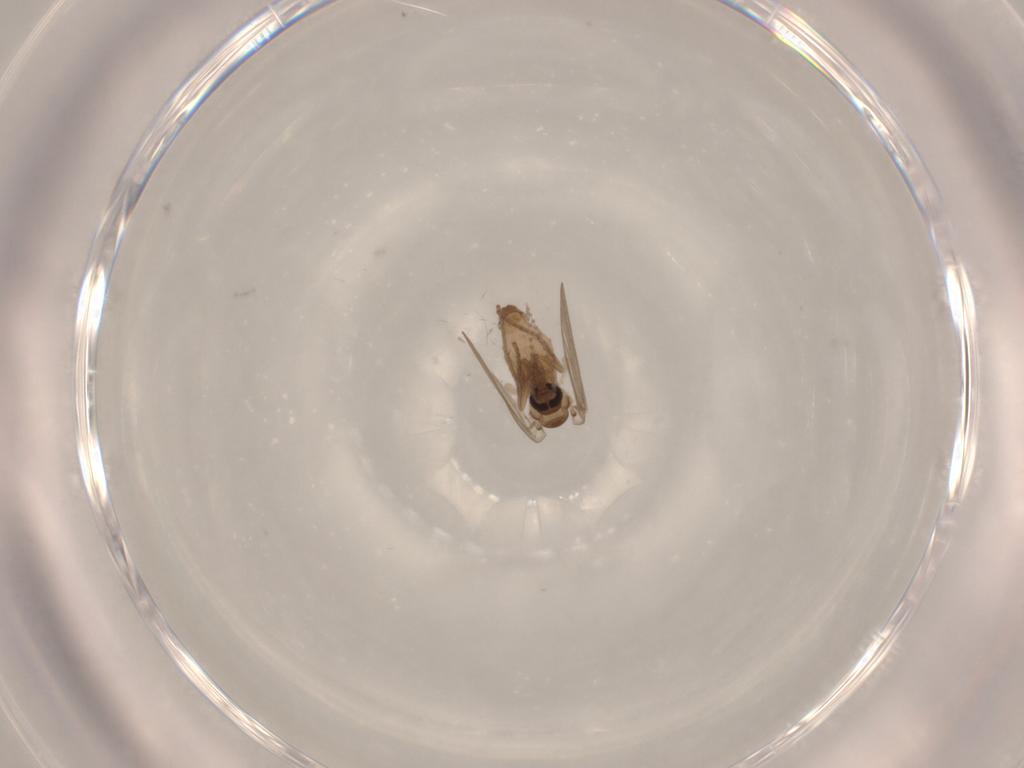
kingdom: Animalia
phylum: Arthropoda
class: Insecta
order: Diptera
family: Psychodidae
